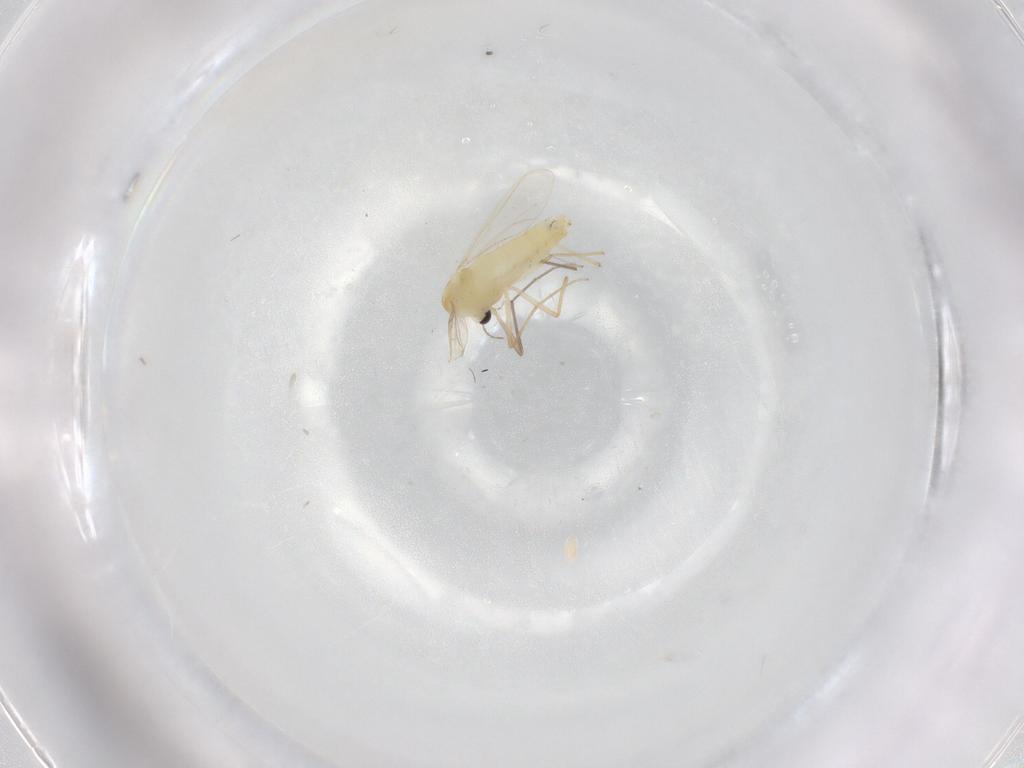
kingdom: Animalia
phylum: Arthropoda
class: Insecta
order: Diptera
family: Chironomidae
